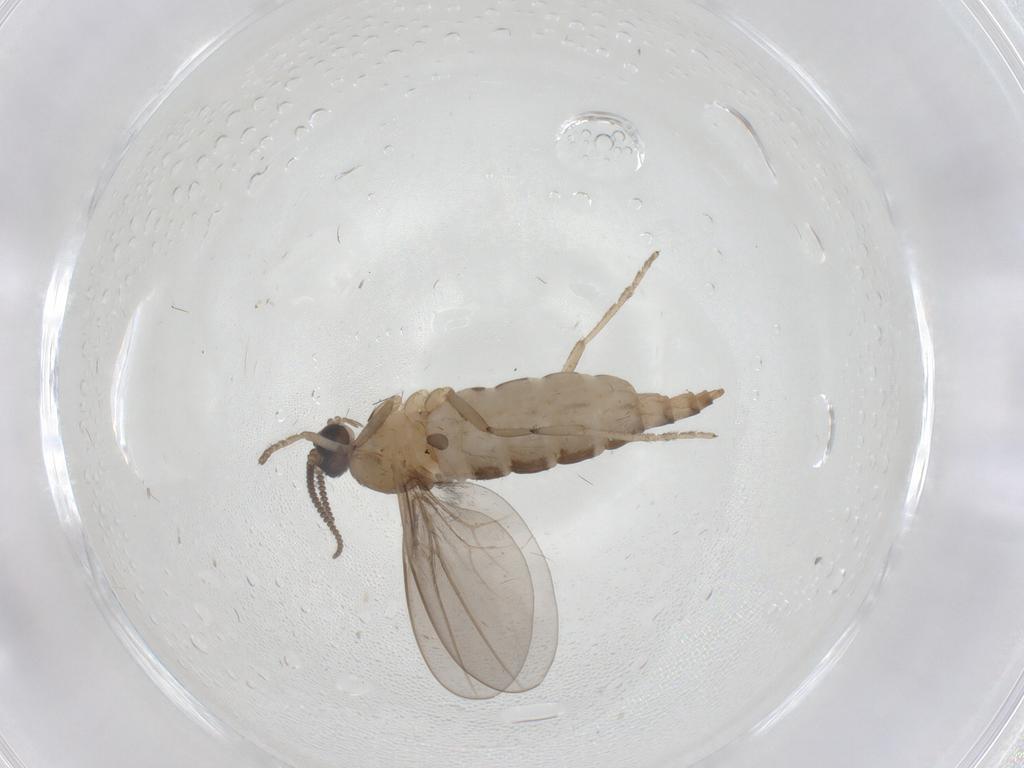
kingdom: Animalia
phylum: Arthropoda
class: Insecta
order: Diptera
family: Cecidomyiidae
